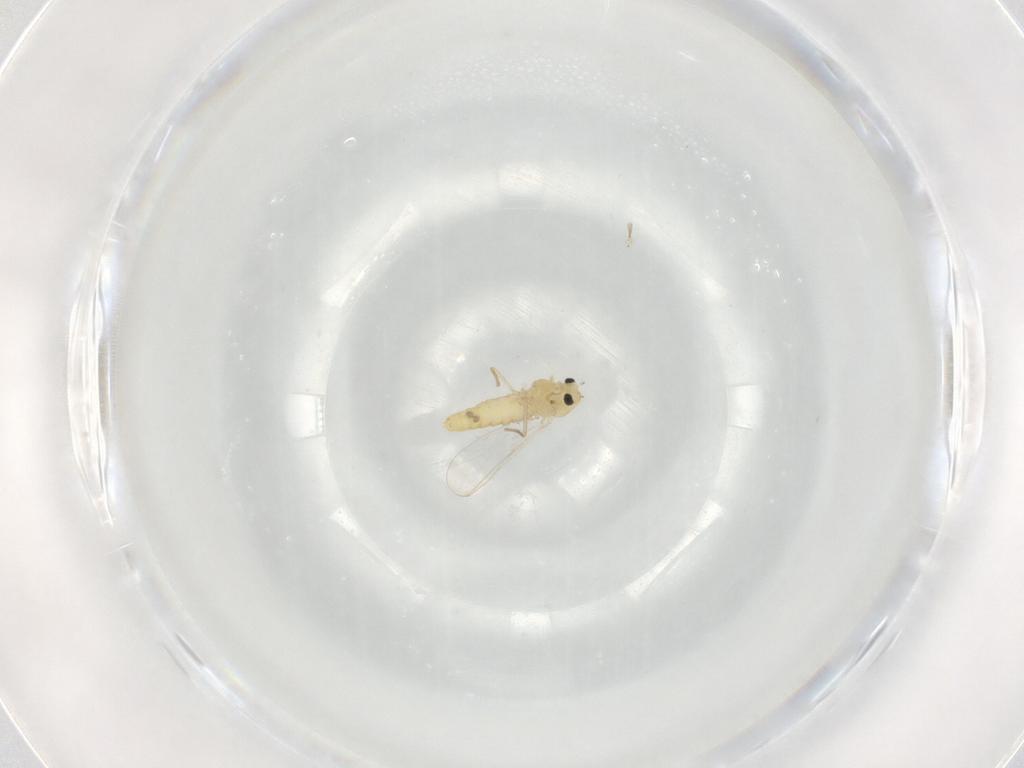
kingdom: Animalia
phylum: Arthropoda
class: Insecta
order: Diptera
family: Chironomidae
